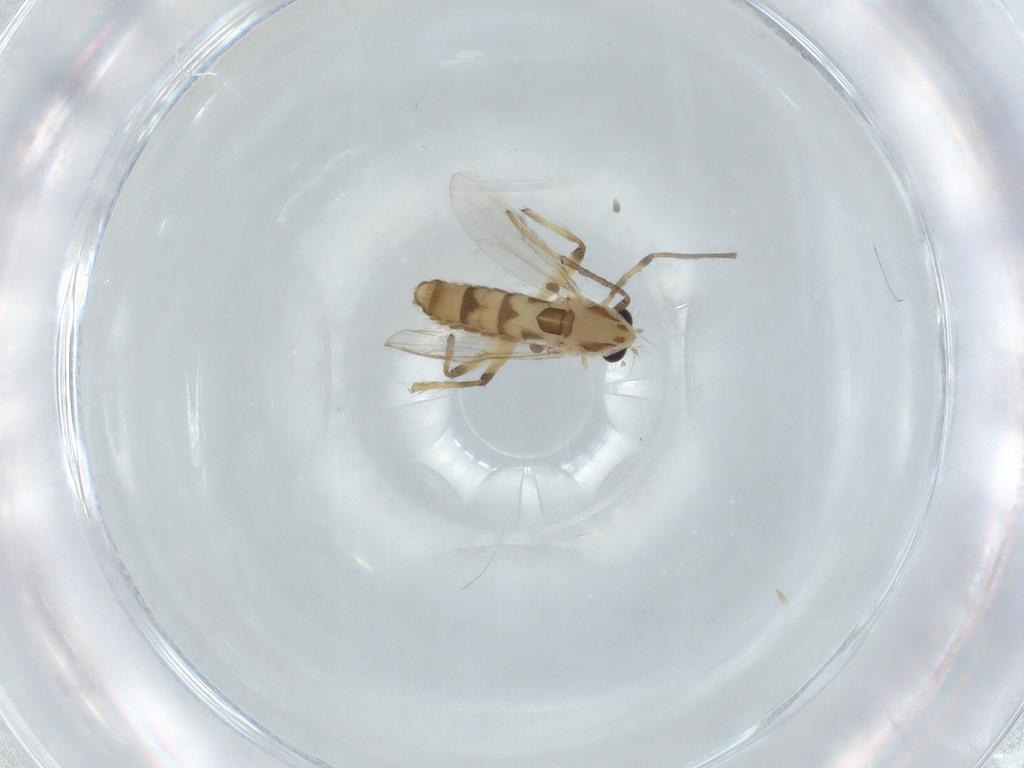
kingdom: Animalia
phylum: Arthropoda
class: Insecta
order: Diptera
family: Chironomidae
